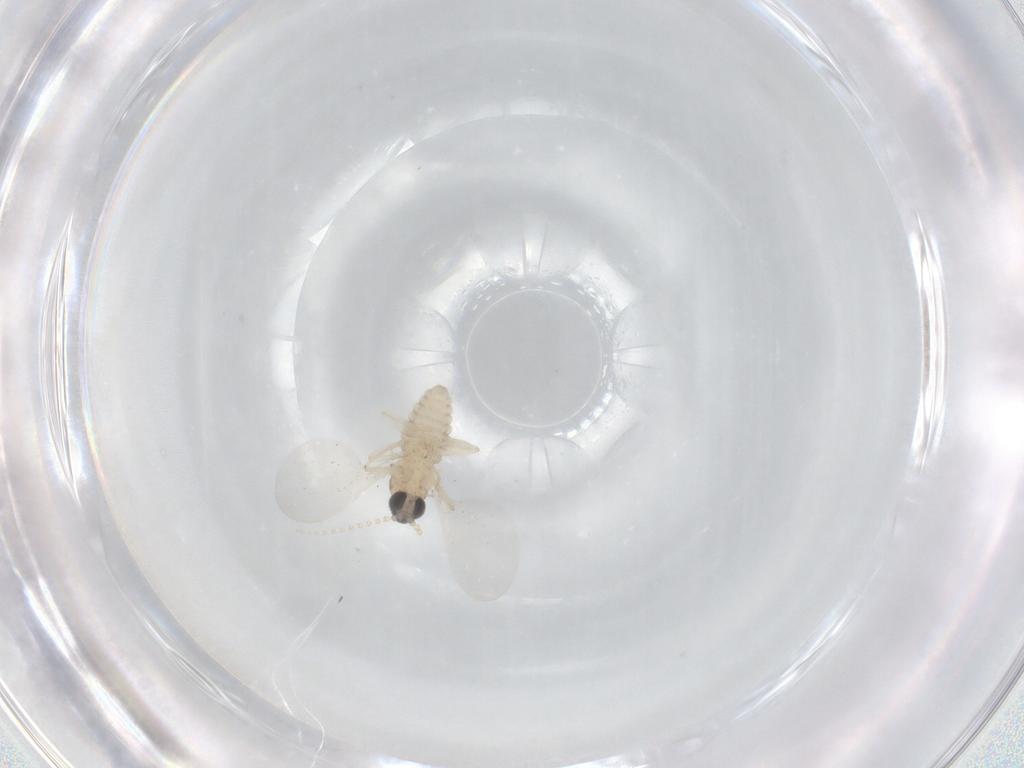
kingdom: Animalia
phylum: Arthropoda
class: Insecta
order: Diptera
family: Cecidomyiidae
